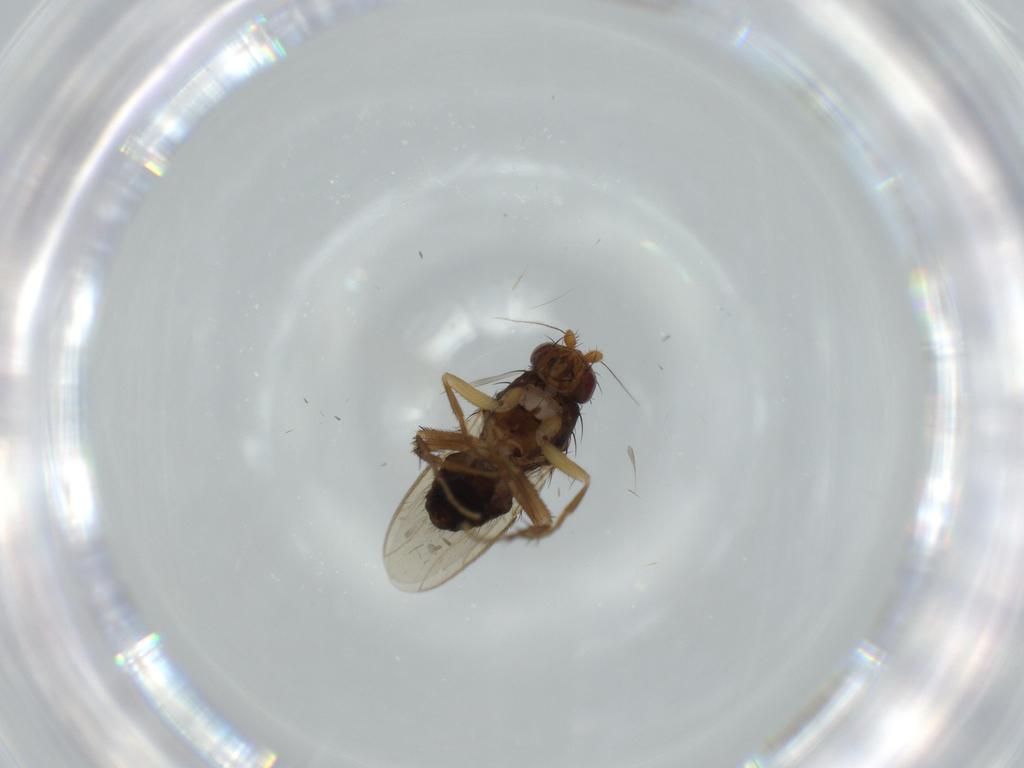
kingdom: Animalia
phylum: Arthropoda
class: Insecta
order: Diptera
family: Sphaeroceridae
